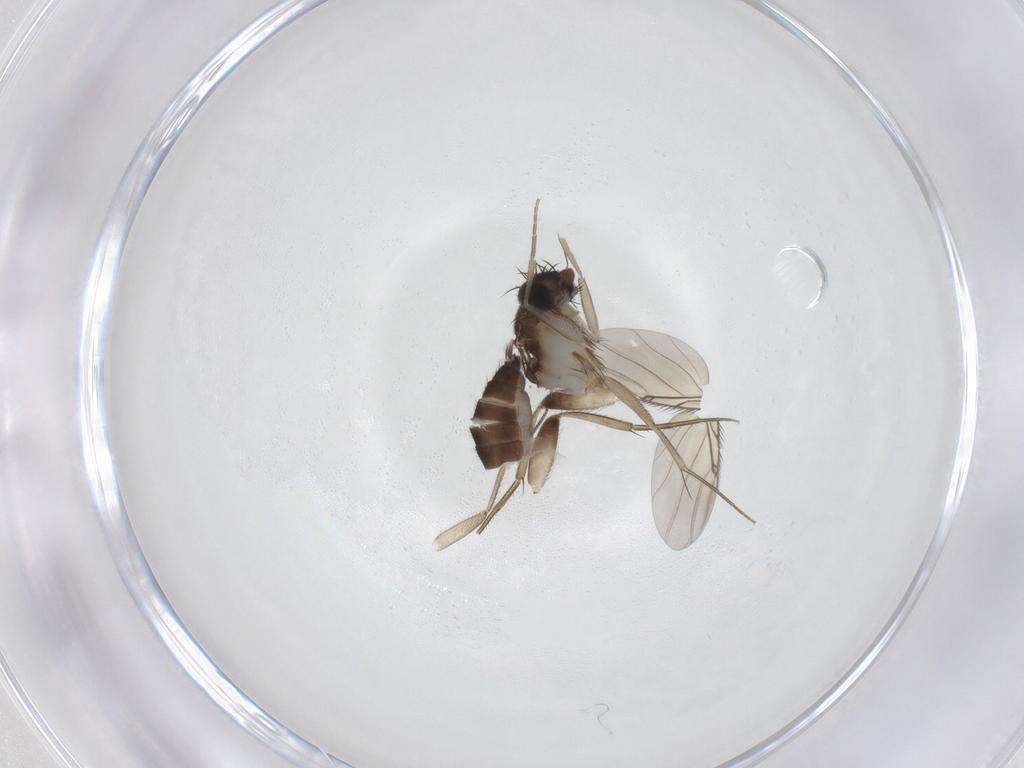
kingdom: Animalia
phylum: Arthropoda
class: Insecta
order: Diptera
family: Phoridae
